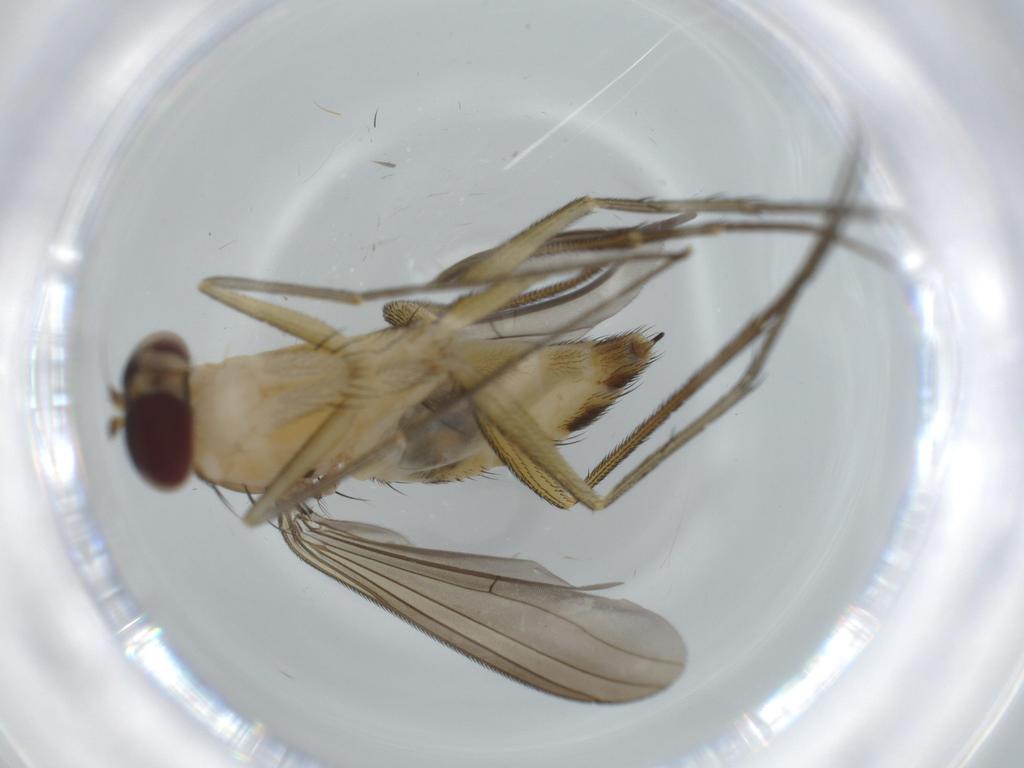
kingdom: Animalia
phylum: Arthropoda
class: Insecta
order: Diptera
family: Dolichopodidae
